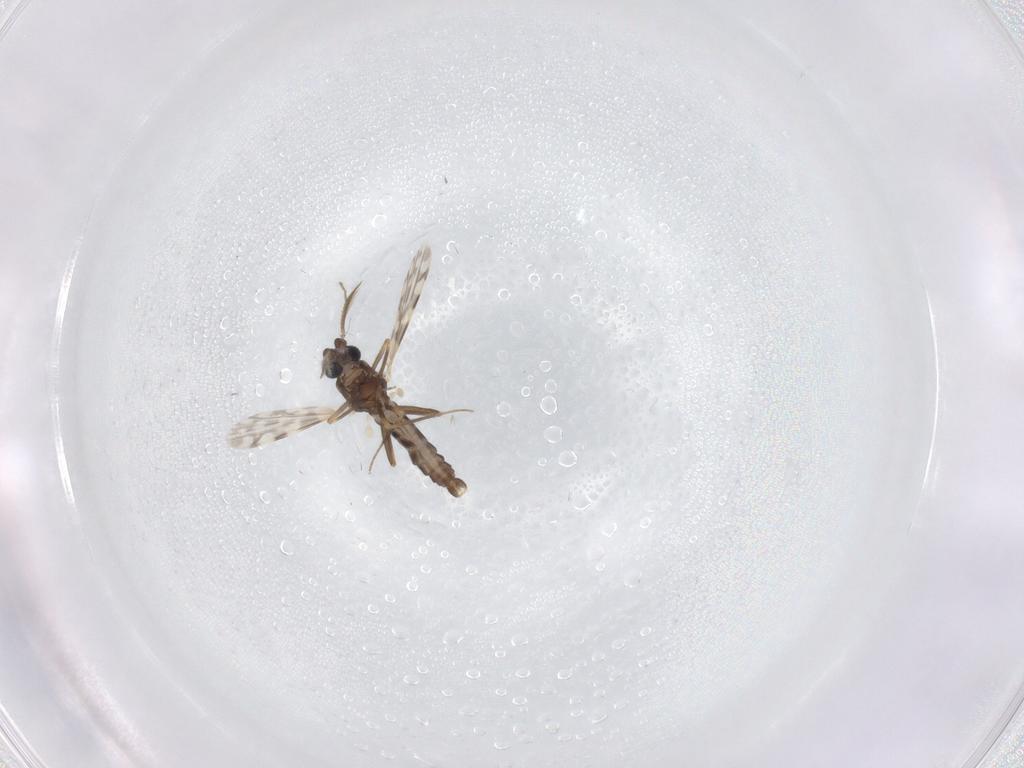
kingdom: Animalia
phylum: Arthropoda
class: Insecta
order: Diptera
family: Ceratopogonidae
